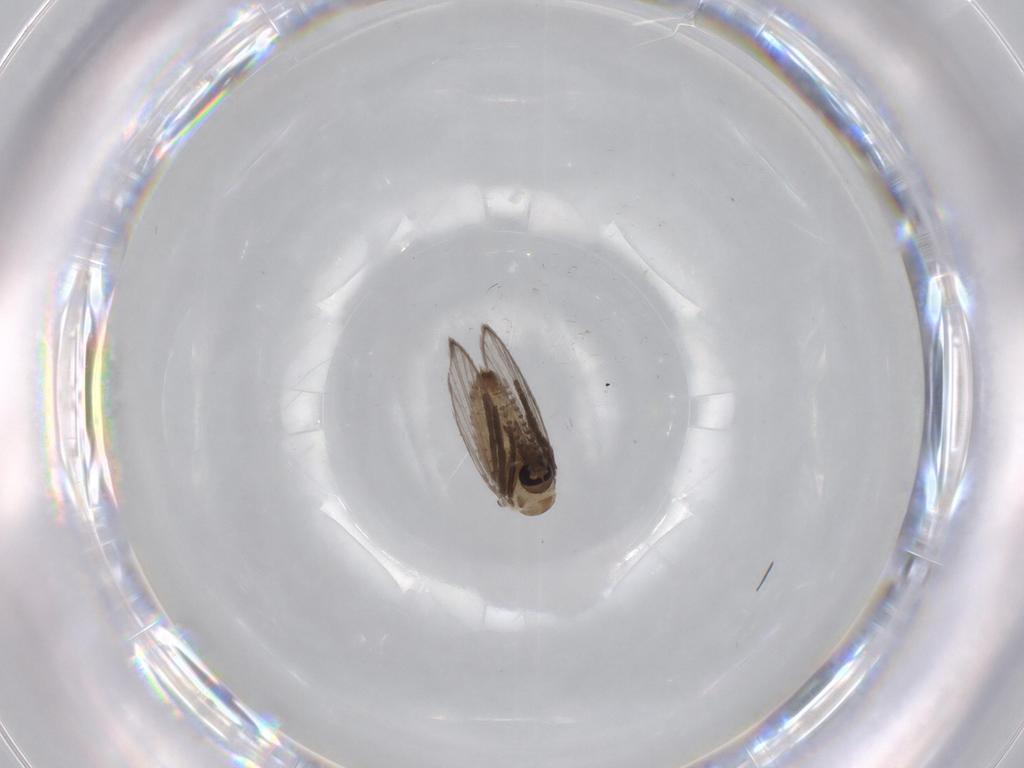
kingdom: Animalia
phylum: Arthropoda
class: Insecta
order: Diptera
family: Psychodidae
